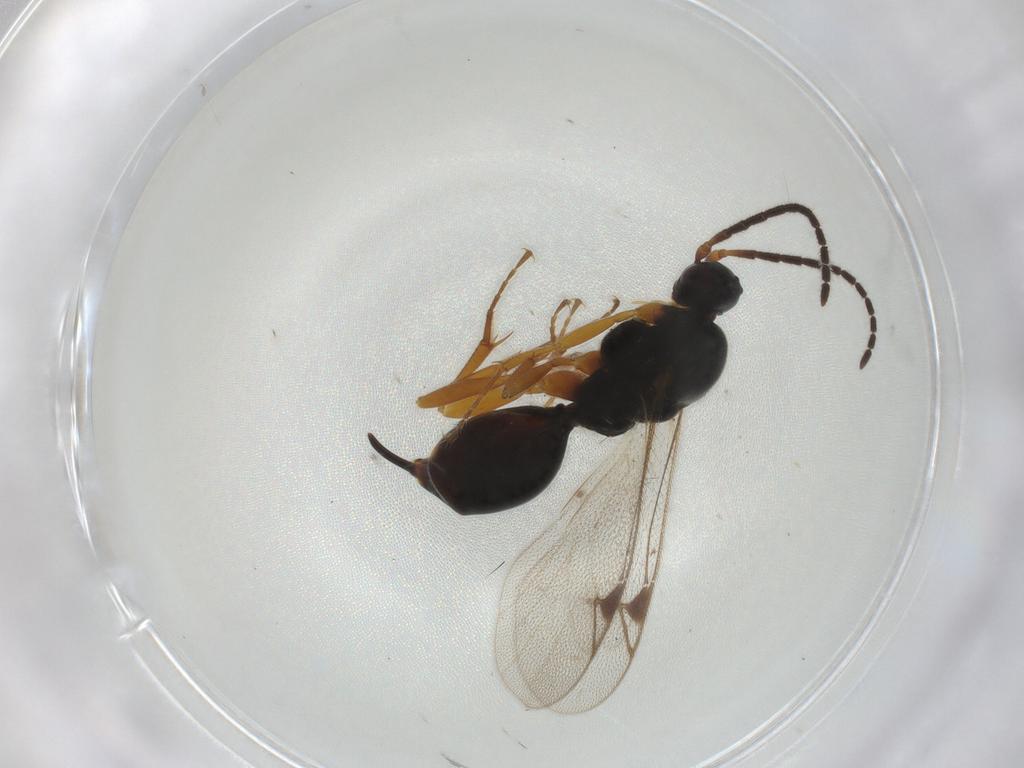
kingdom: Animalia
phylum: Arthropoda
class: Insecta
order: Hymenoptera
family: Proctotrupidae
